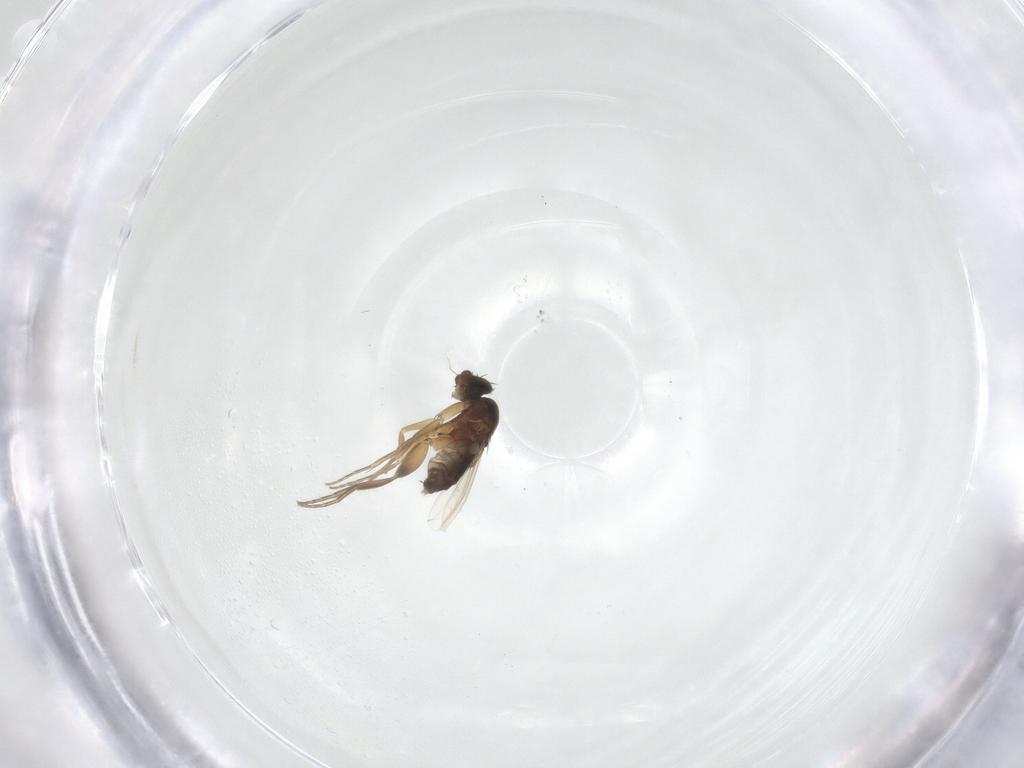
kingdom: Animalia
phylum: Arthropoda
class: Insecta
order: Diptera
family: Phoridae
